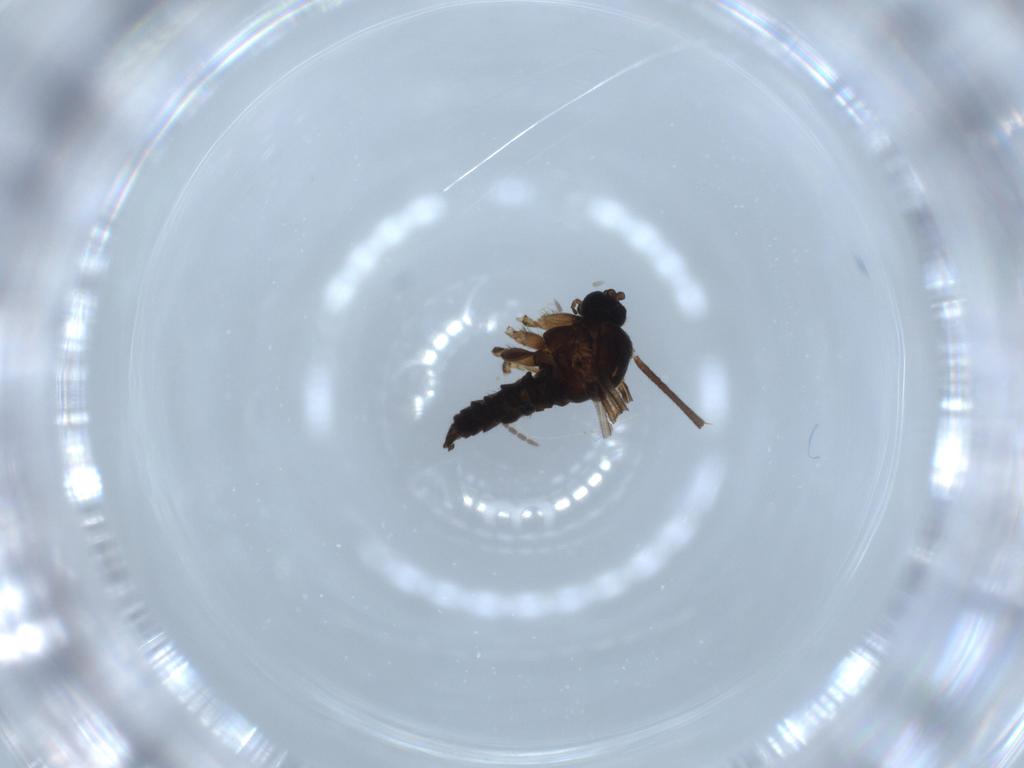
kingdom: Animalia
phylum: Arthropoda
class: Insecta
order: Diptera
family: Sciaridae
